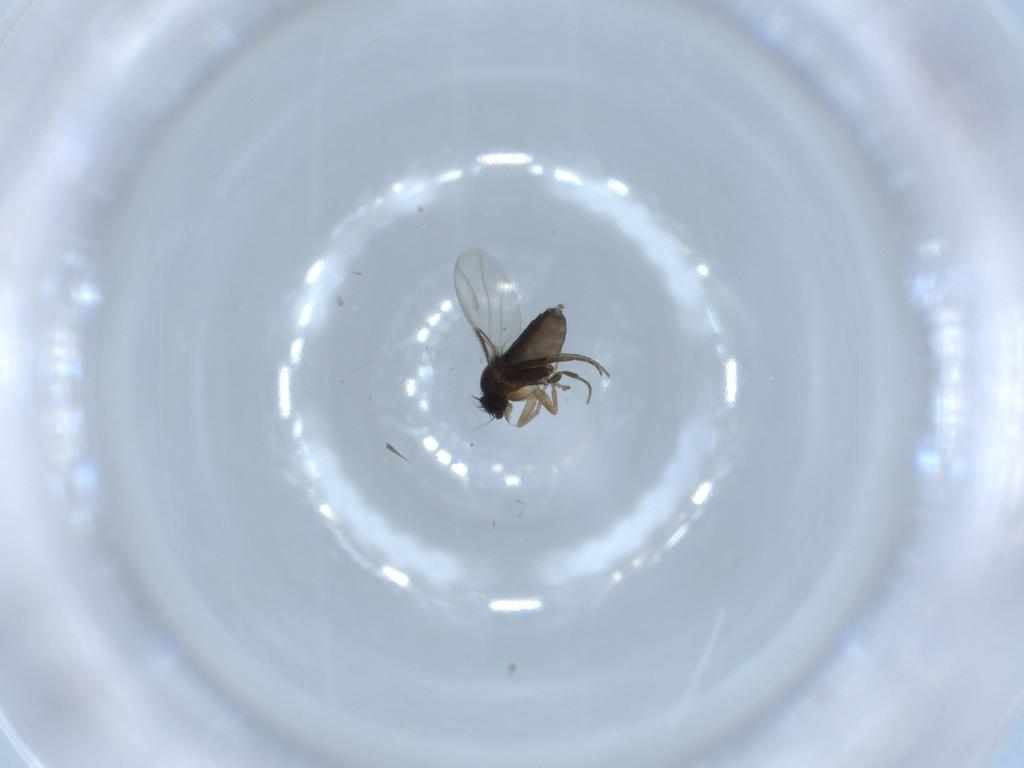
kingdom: Animalia
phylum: Arthropoda
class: Insecta
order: Diptera
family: Phoridae
